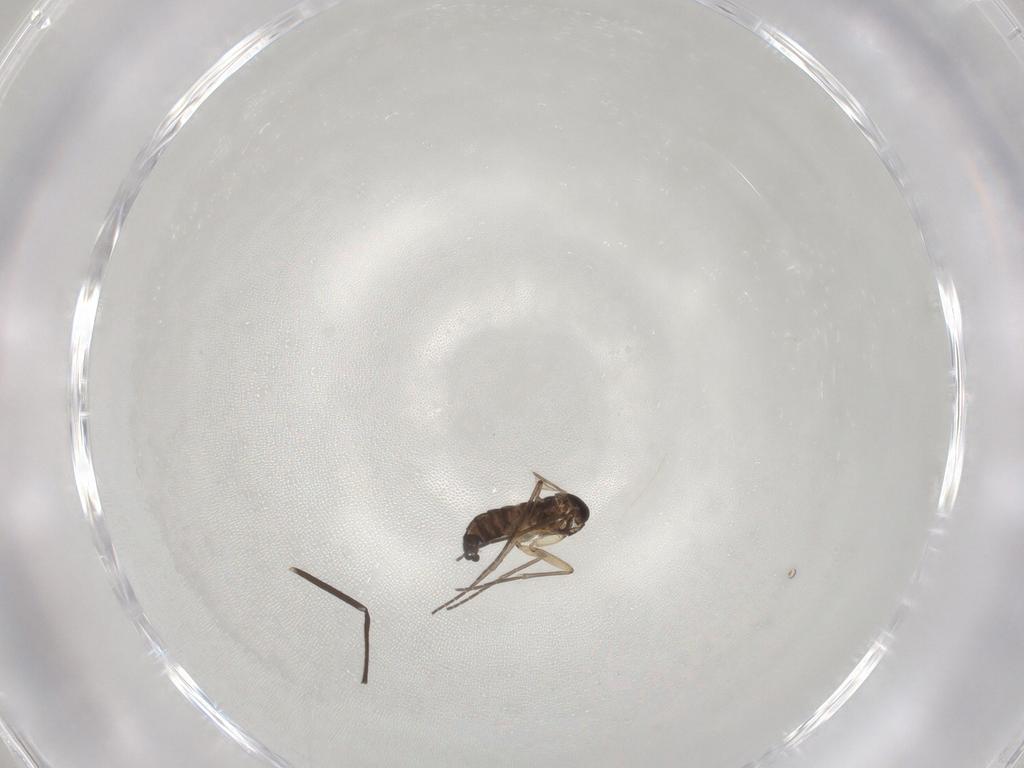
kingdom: Animalia
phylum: Arthropoda
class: Insecta
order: Diptera
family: Chironomidae
